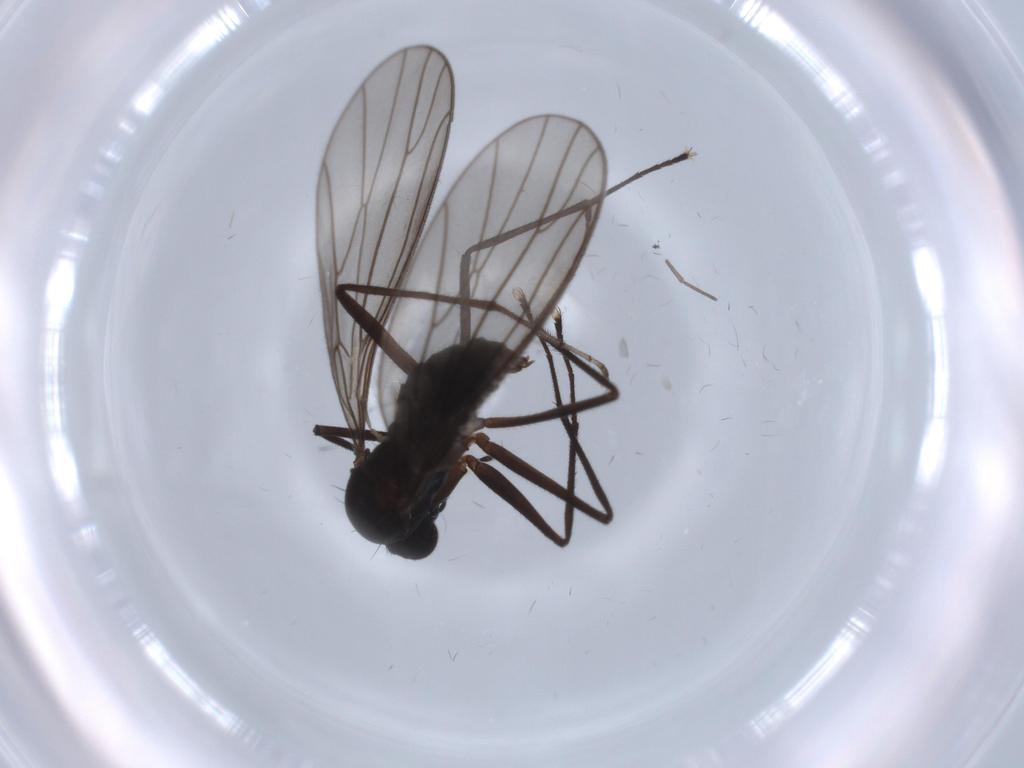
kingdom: Animalia
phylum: Arthropoda
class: Insecta
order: Diptera
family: Empididae
